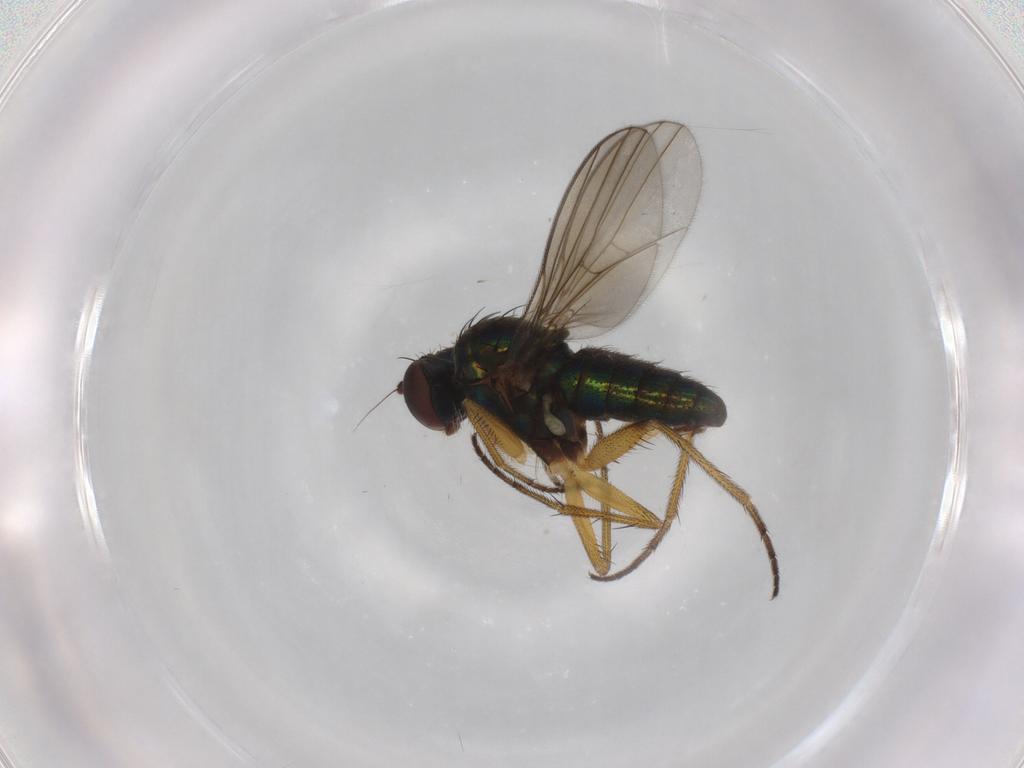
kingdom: Animalia
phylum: Arthropoda
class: Insecta
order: Diptera
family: Dolichopodidae
